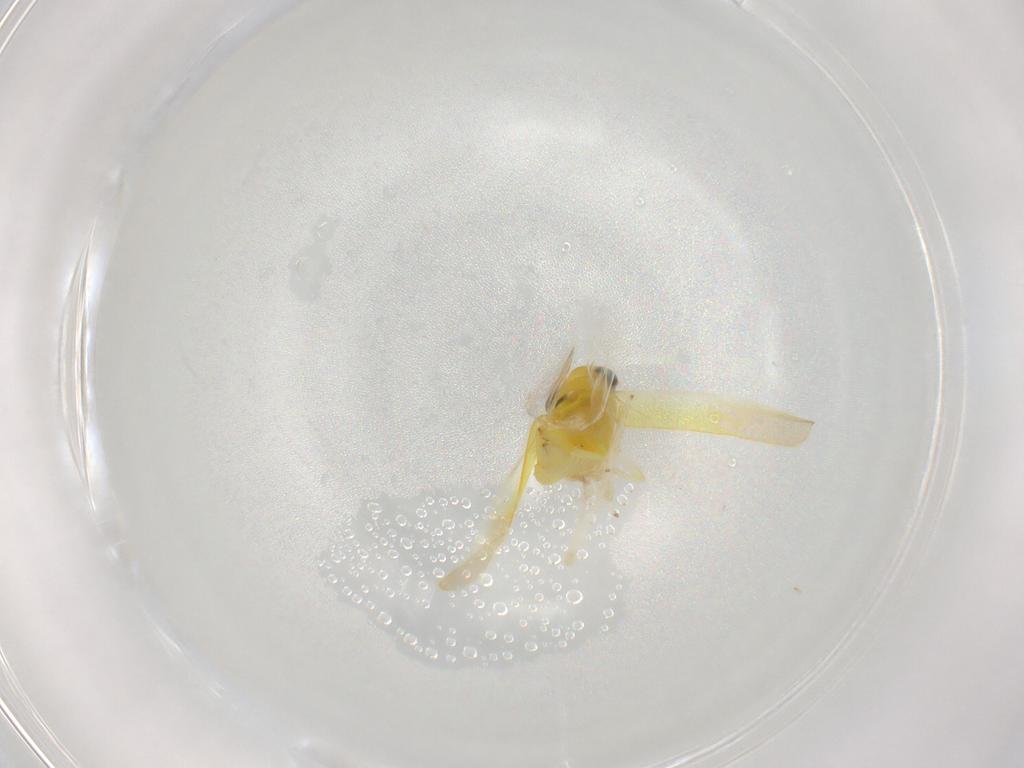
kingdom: Animalia
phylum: Arthropoda
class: Insecta
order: Hemiptera
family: Cicadellidae
